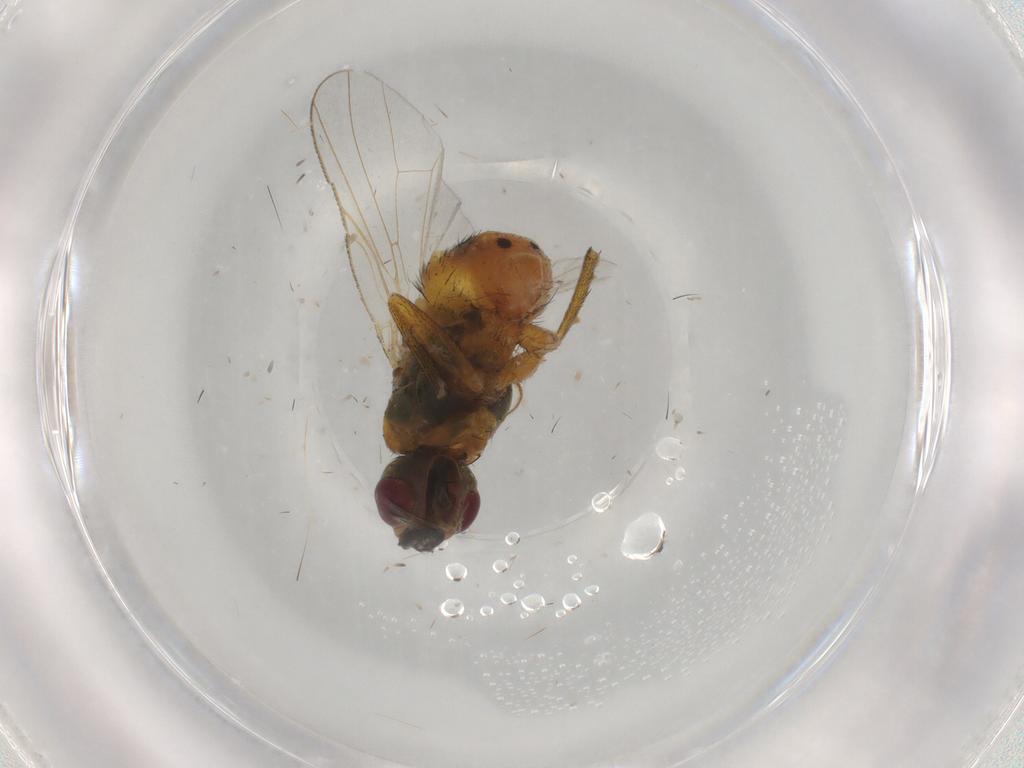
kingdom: Animalia
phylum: Arthropoda
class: Insecta
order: Diptera
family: Muscidae
